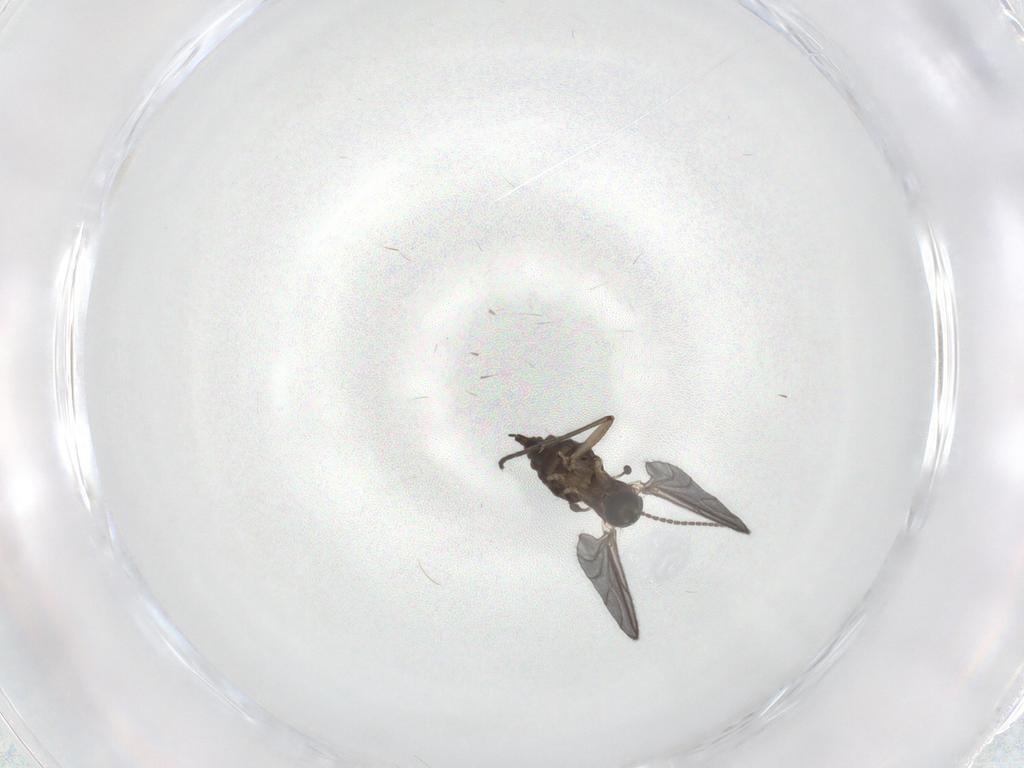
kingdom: Animalia
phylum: Arthropoda
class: Insecta
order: Diptera
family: Sciaridae
